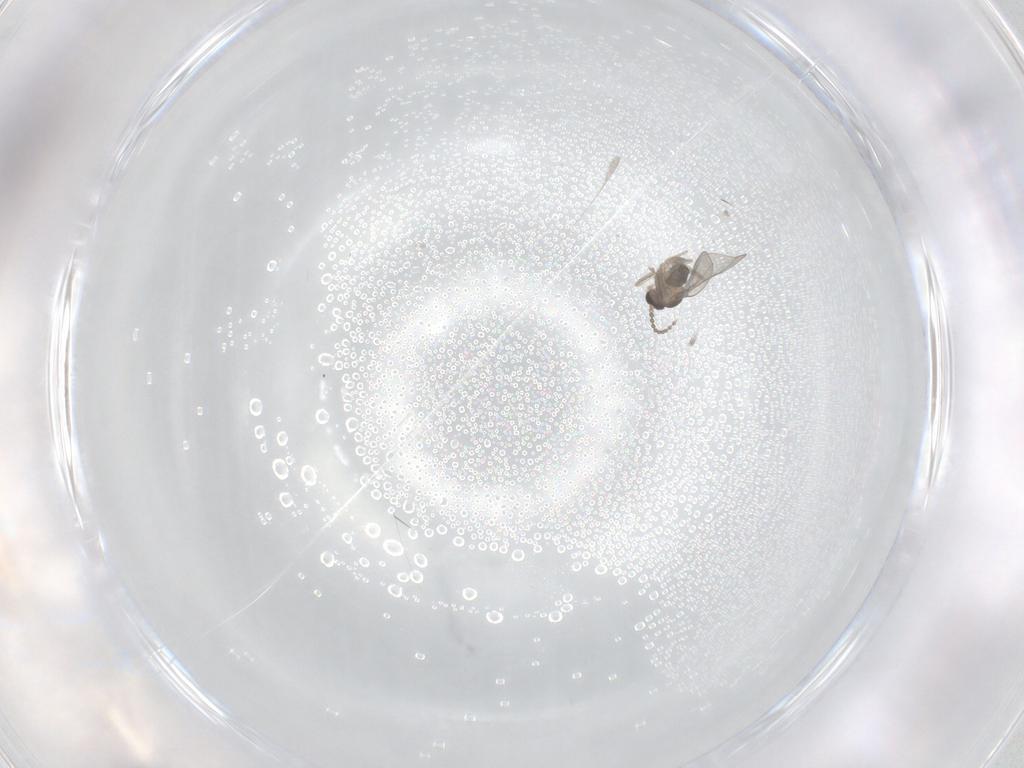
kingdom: Animalia
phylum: Arthropoda
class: Insecta
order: Diptera
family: Cecidomyiidae
